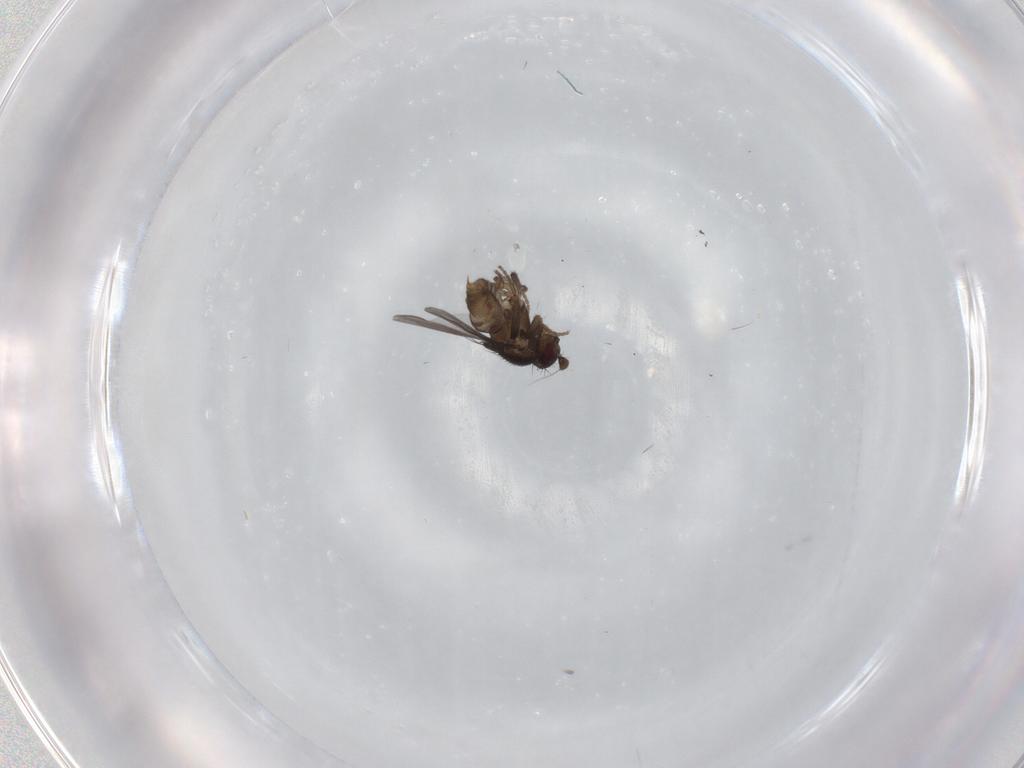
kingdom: Animalia
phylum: Arthropoda
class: Insecta
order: Diptera
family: Sphaeroceridae
